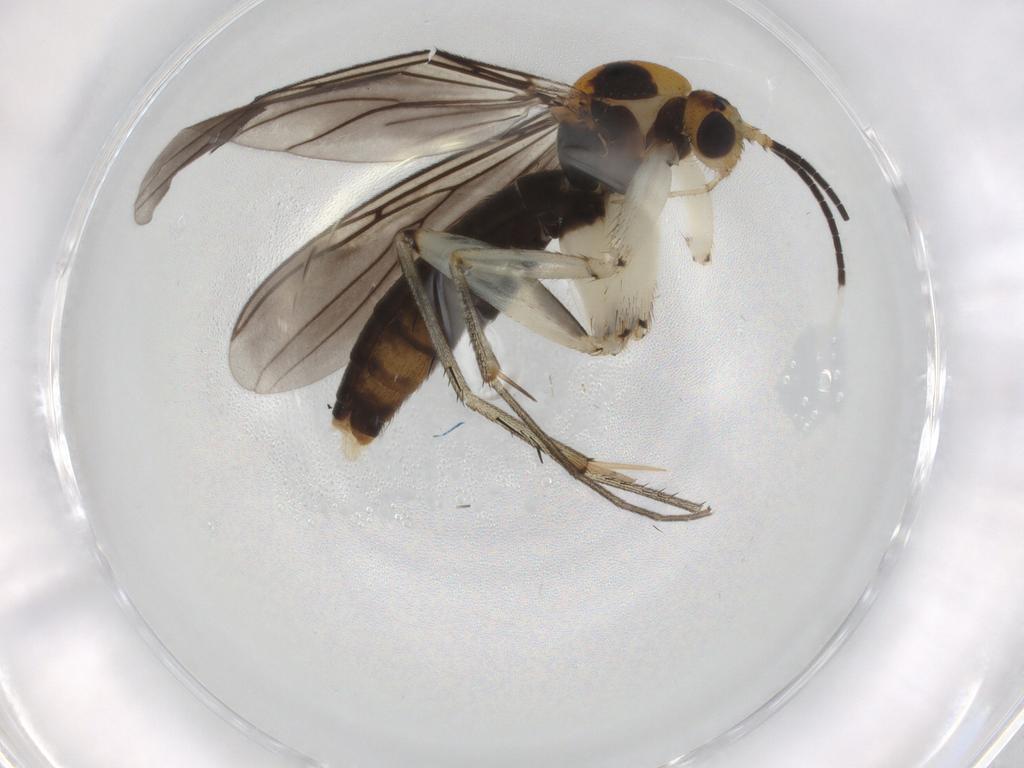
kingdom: Animalia
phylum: Arthropoda
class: Insecta
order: Diptera
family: Mycetophilidae
